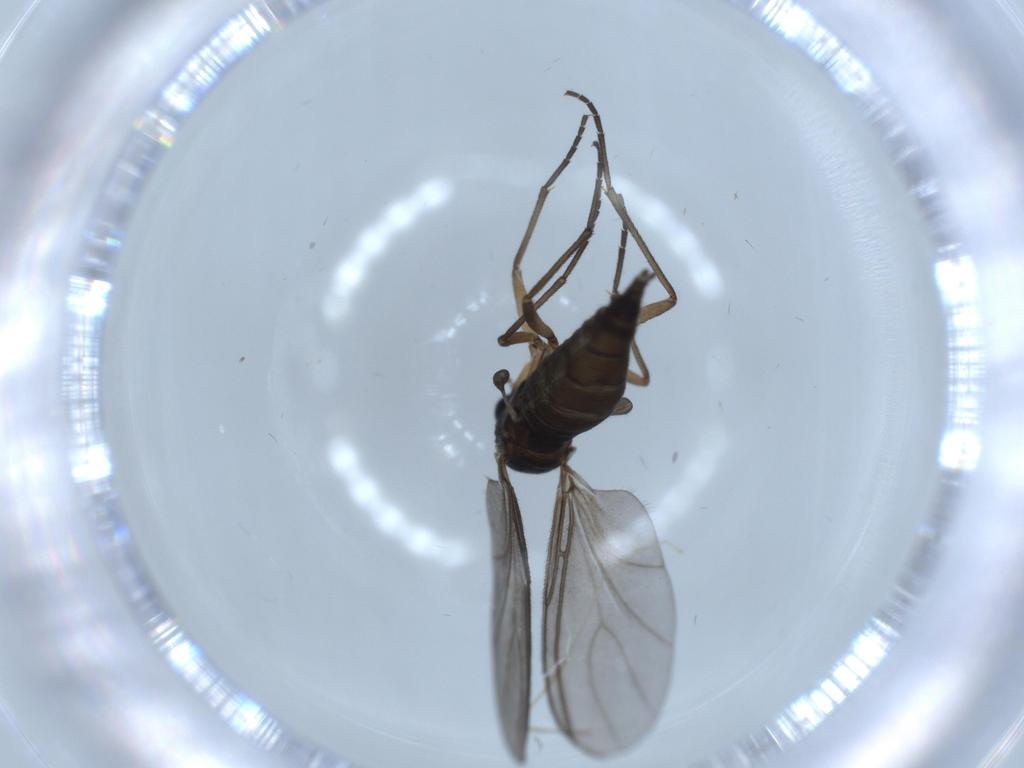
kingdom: Animalia
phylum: Arthropoda
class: Insecta
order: Diptera
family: Sciaridae
